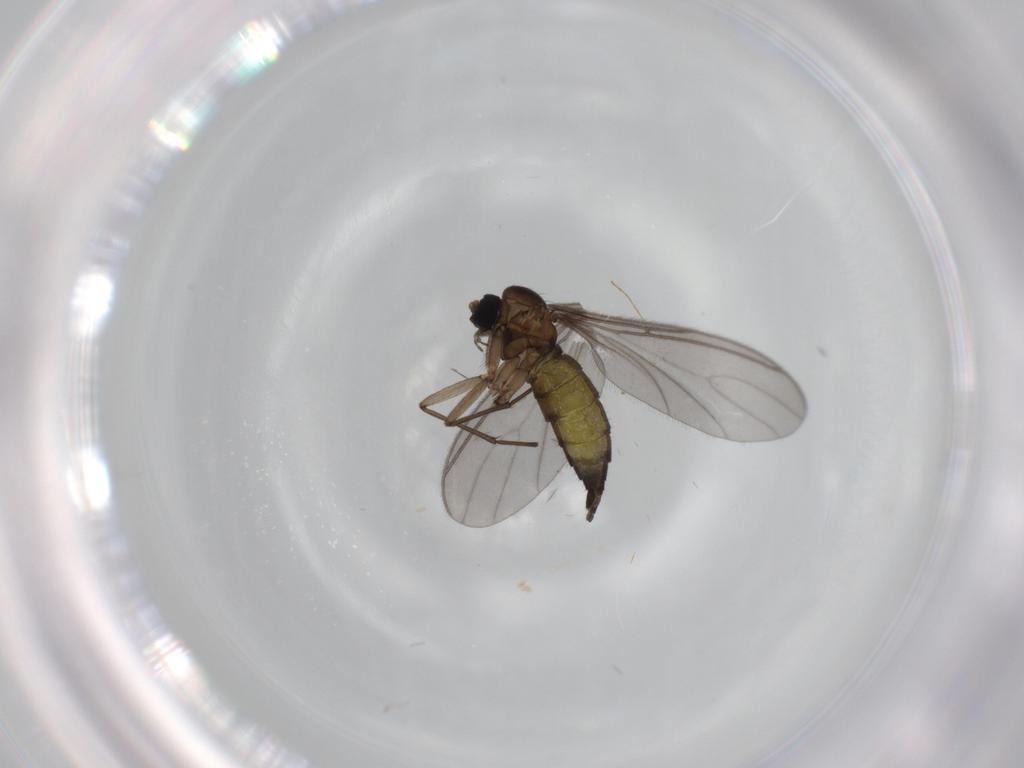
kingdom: Animalia
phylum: Arthropoda
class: Insecta
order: Diptera
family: Sciaridae
